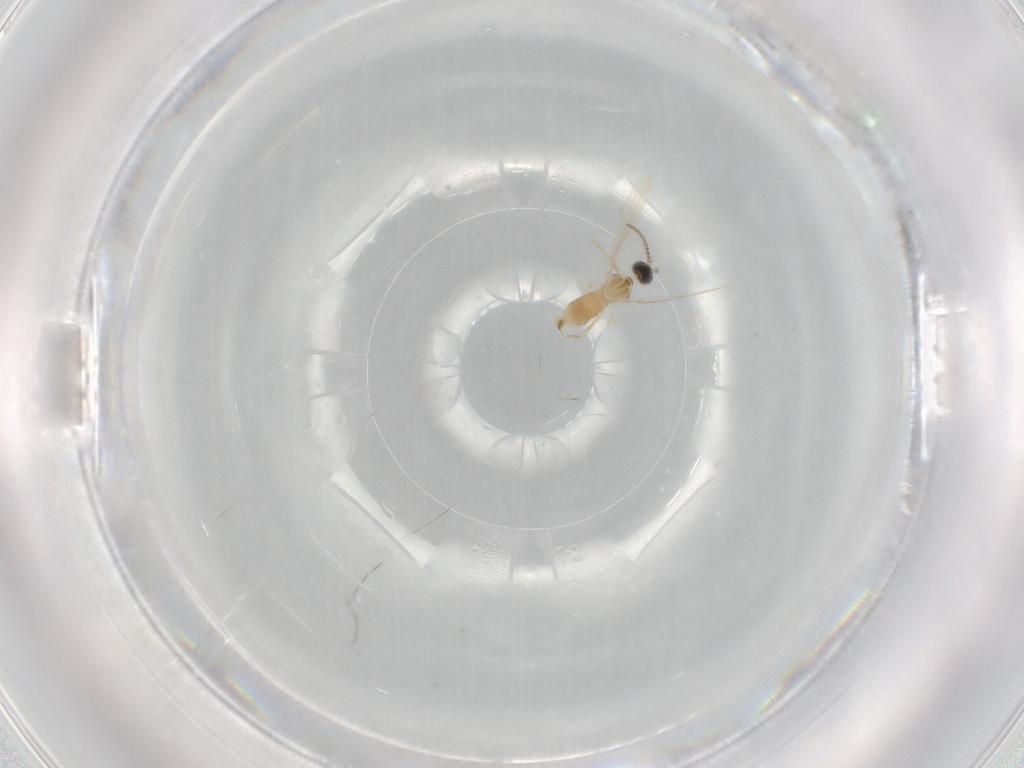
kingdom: Animalia
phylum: Arthropoda
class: Insecta
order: Diptera
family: Cecidomyiidae
